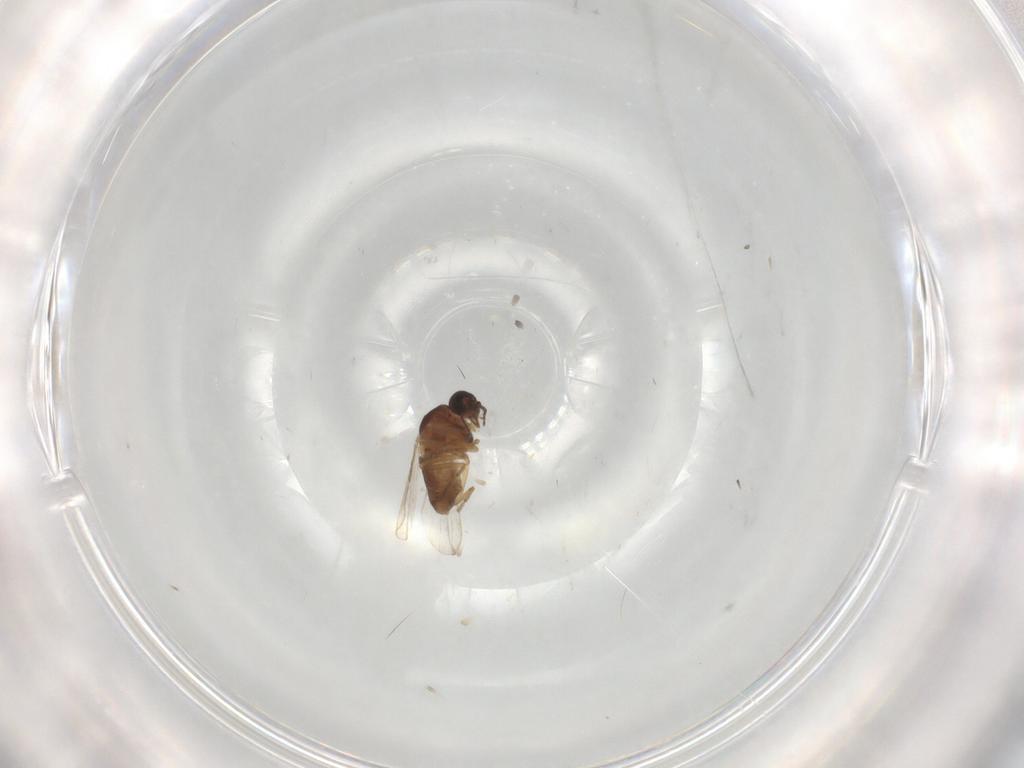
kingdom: Animalia
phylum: Arthropoda
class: Insecta
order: Diptera
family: Ceratopogonidae
